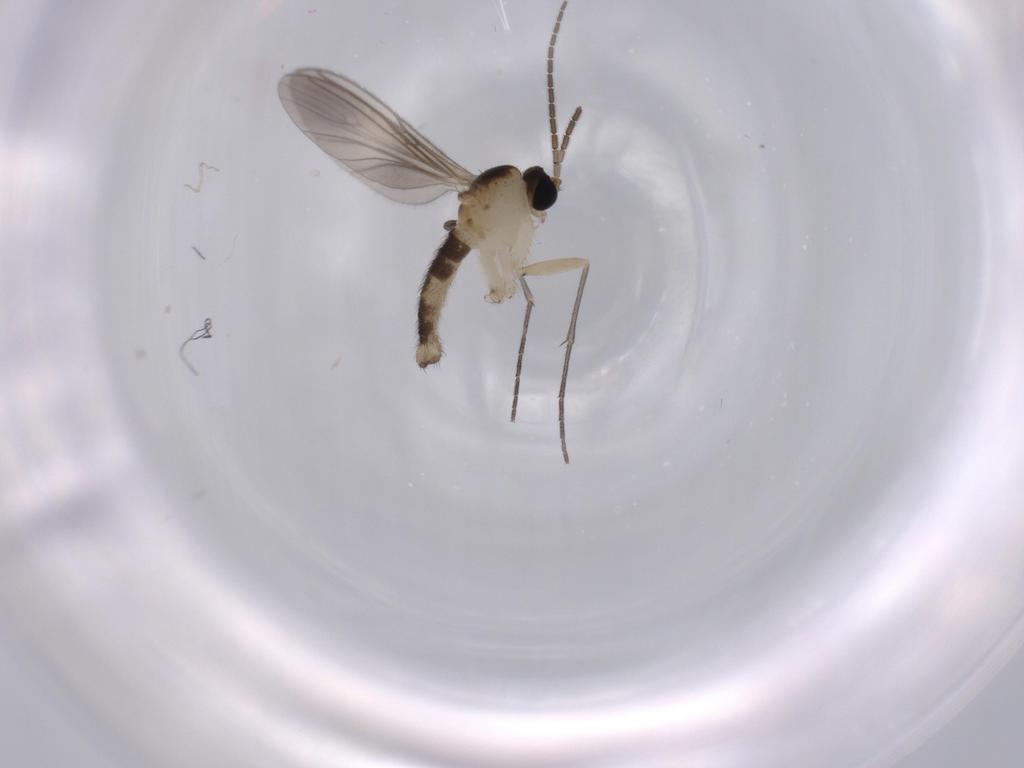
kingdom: Animalia
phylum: Arthropoda
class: Insecta
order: Diptera
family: Sciaridae
